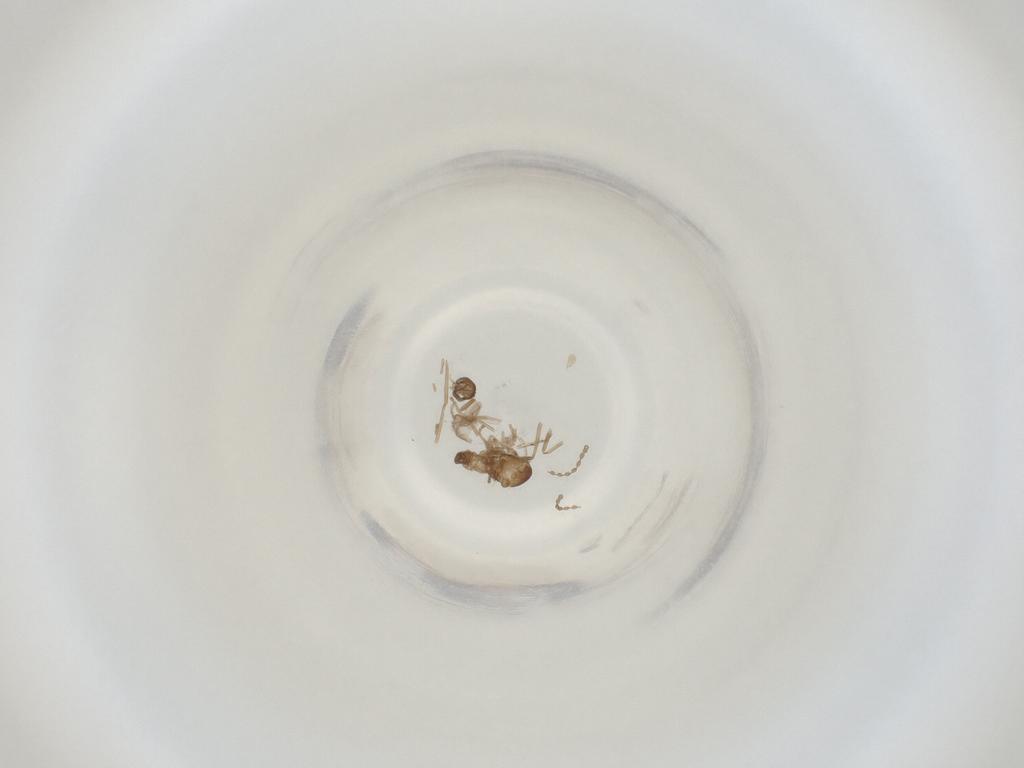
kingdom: Animalia
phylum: Arthropoda
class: Insecta
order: Diptera
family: Cecidomyiidae
